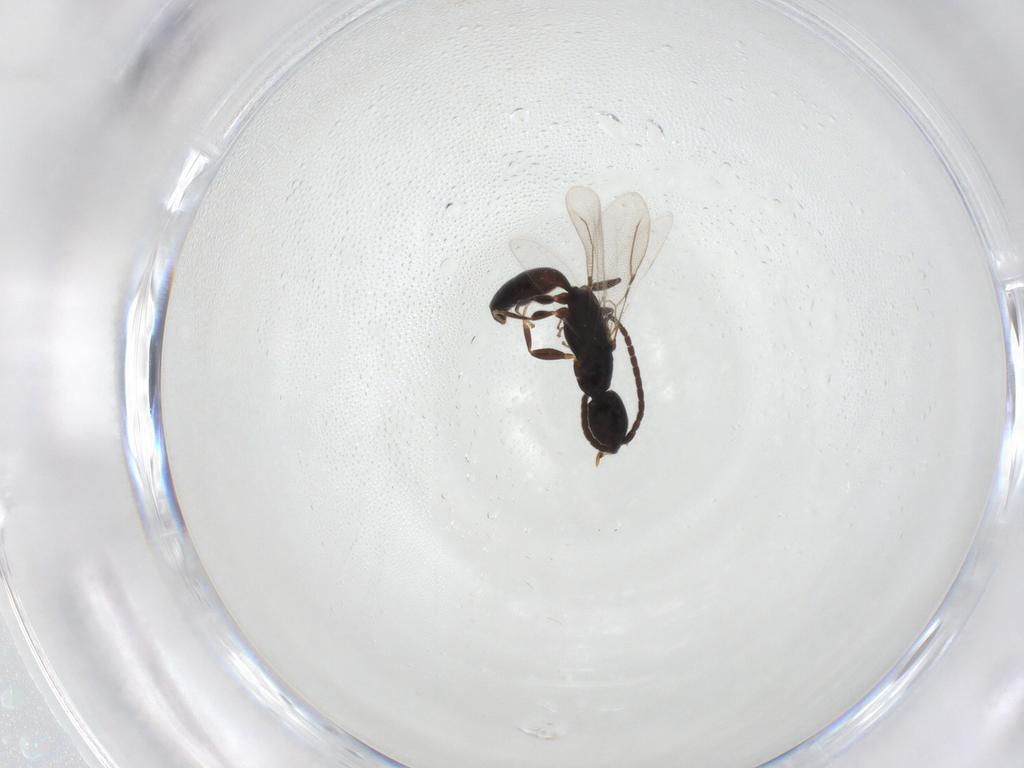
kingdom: Animalia
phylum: Arthropoda
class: Insecta
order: Hymenoptera
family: Bethylidae
